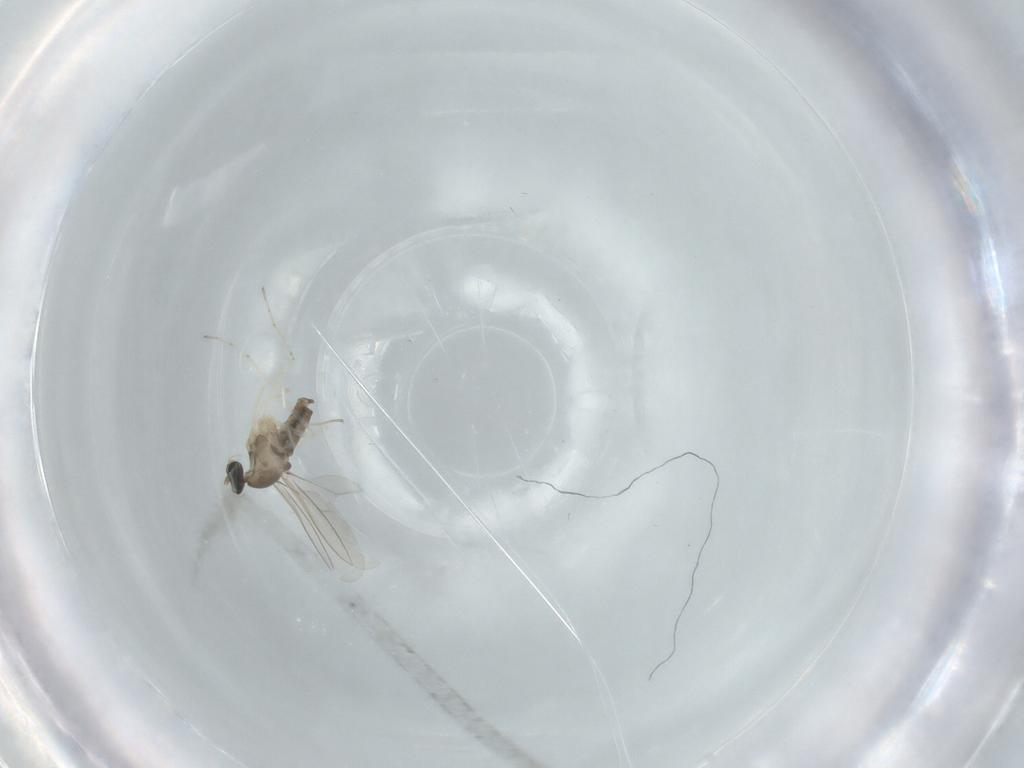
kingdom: Animalia
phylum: Arthropoda
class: Insecta
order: Diptera
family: Cecidomyiidae
